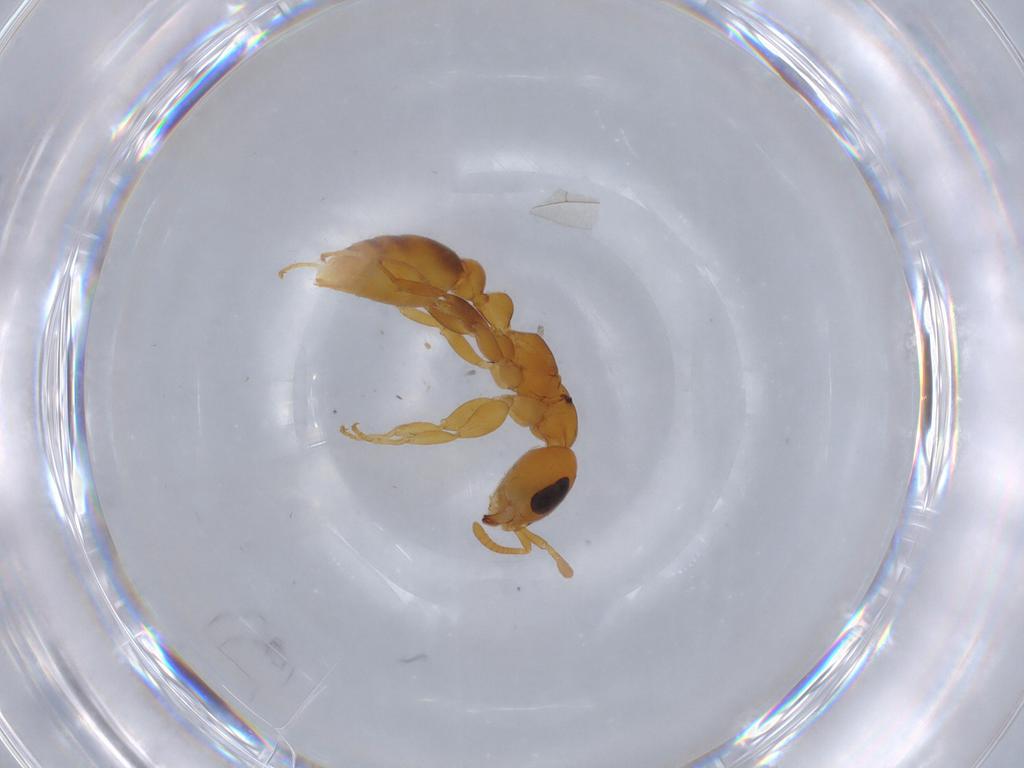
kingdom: Animalia
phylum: Arthropoda
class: Insecta
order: Hymenoptera
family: Formicidae
